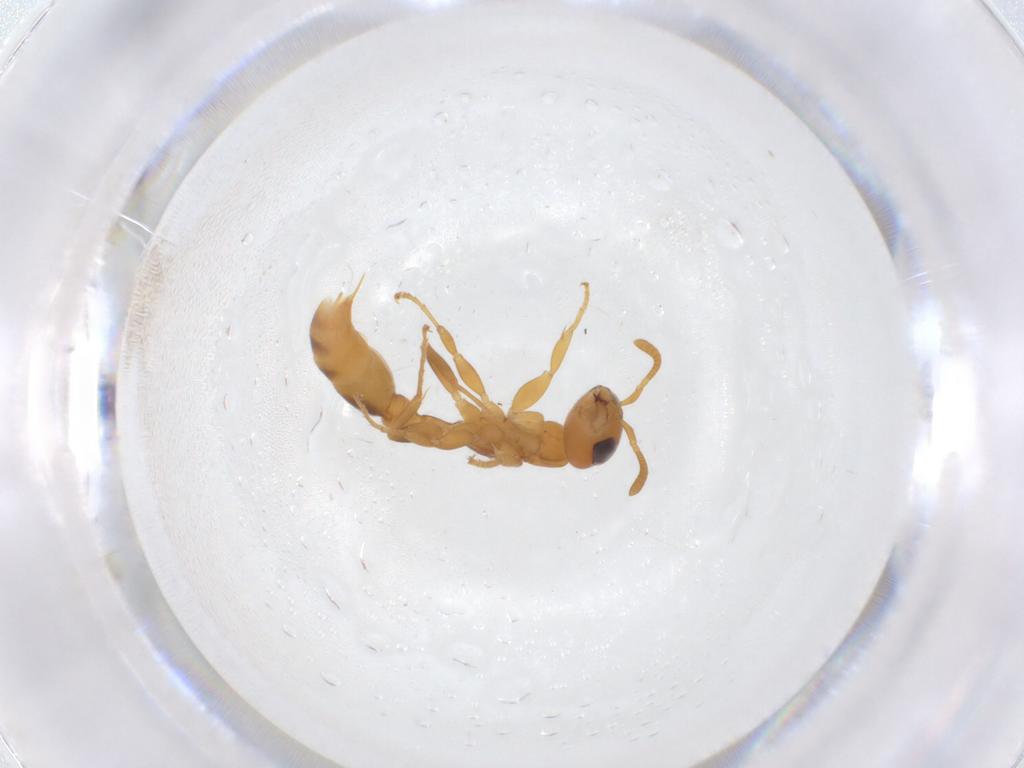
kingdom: Animalia
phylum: Arthropoda
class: Insecta
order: Hymenoptera
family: Formicidae
